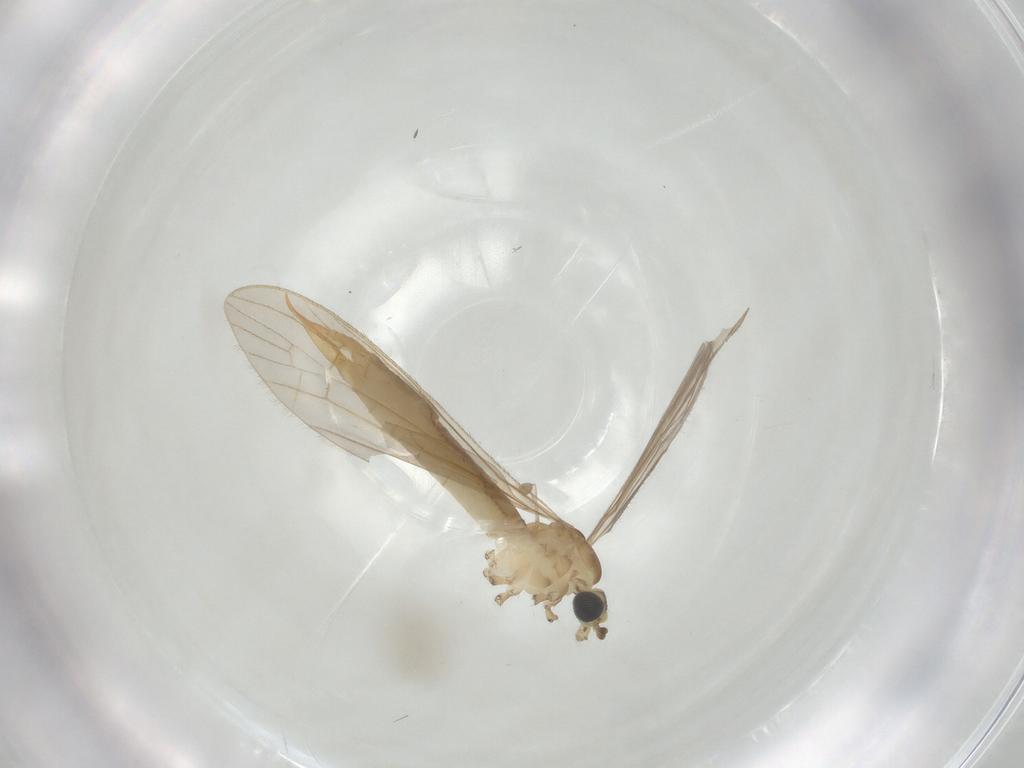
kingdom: Animalia
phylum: Arthropoda
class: Insecta
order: Diptera
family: Limoniidae
